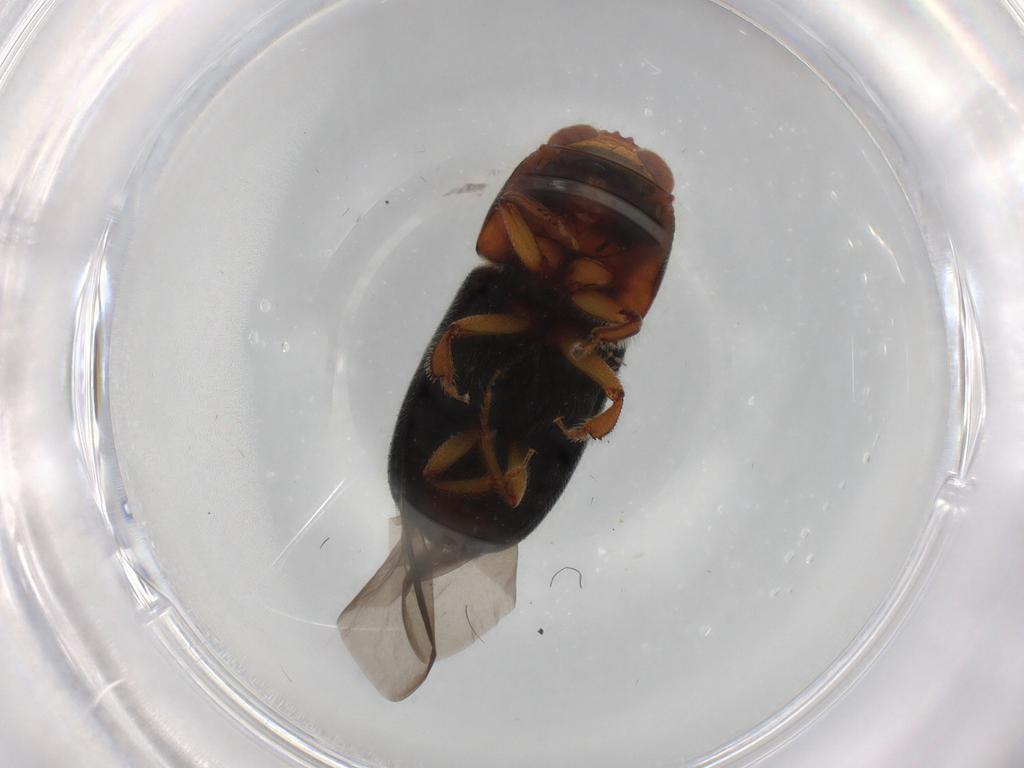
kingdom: Animalia
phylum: Arthropoda
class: Insecta
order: Coleoptera
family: Curculionidae
